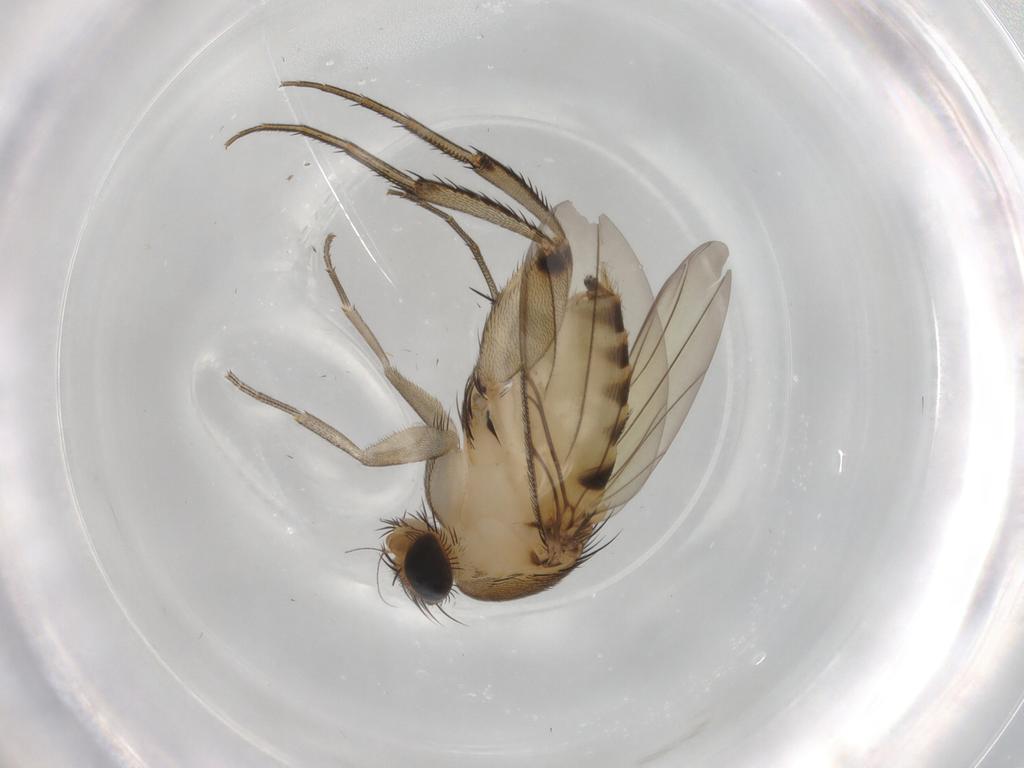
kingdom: Animalia
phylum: Arthropoda
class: Insecta
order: Diptera
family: Phoridae
